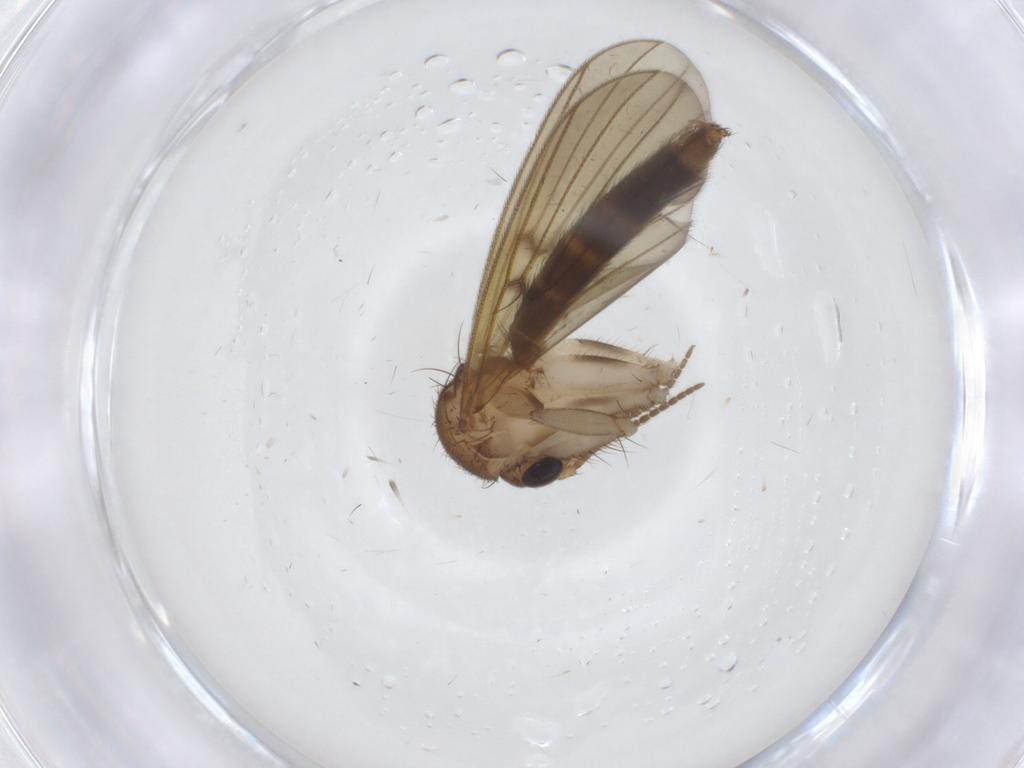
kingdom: Animalia
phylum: Arthropoda
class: Insecta
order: Diptera
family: Mycetophilidae
